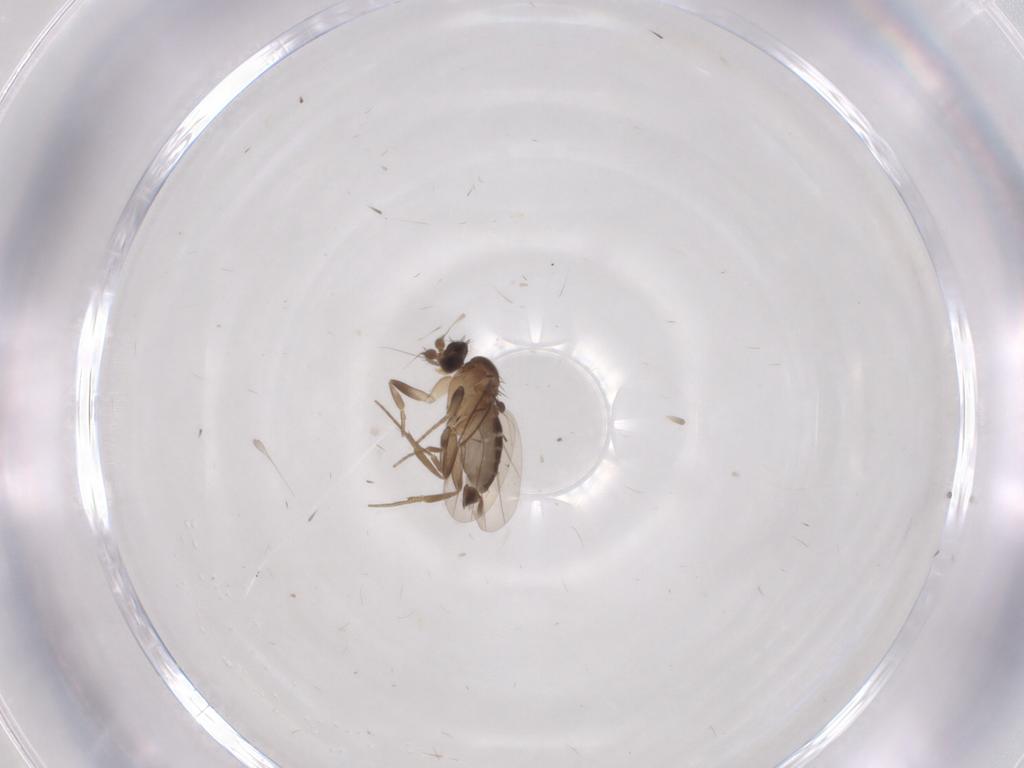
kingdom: Animalia
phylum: Arthropoda
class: Insecta
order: Diptera
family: Phoridae
